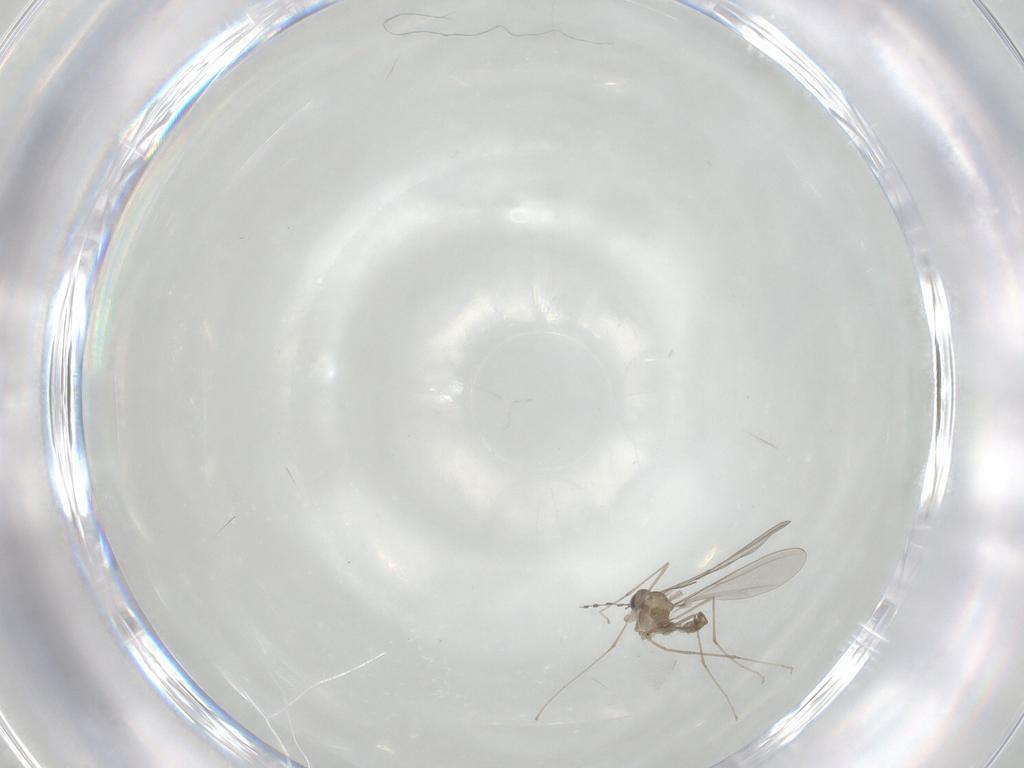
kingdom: Animalia
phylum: Arthropoda
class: Insecta
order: Diptera
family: Cecidomyiidae
